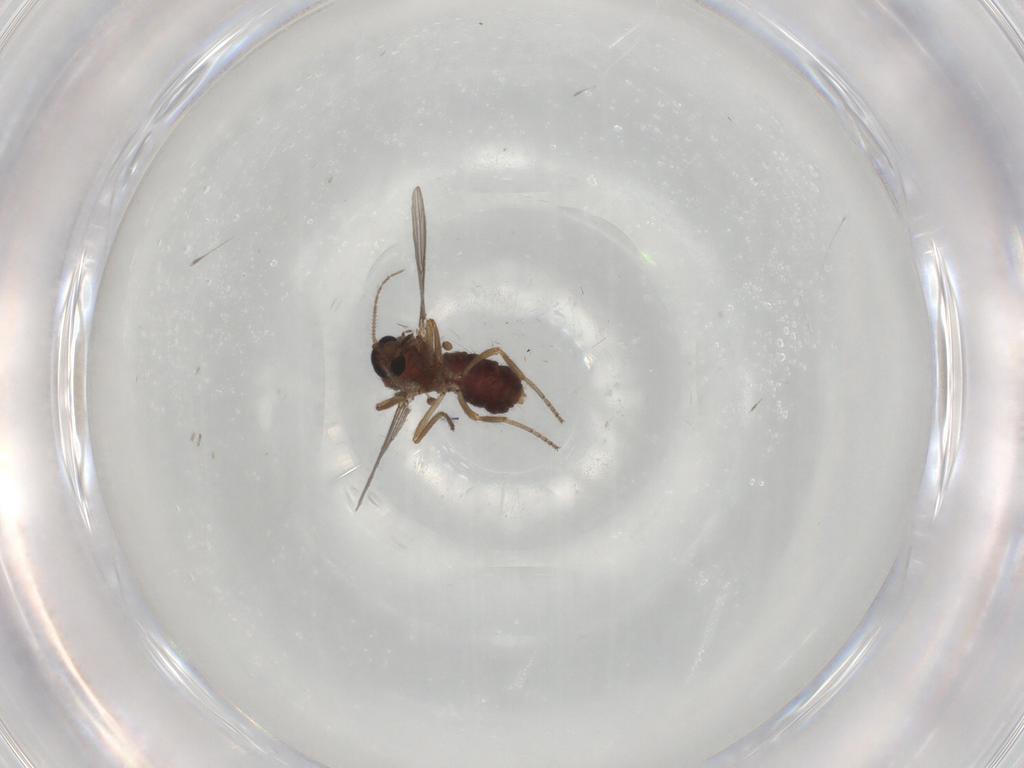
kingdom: Animalia
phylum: Arthropoda
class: Insecta
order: Diptera
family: Ceratopogonidae
